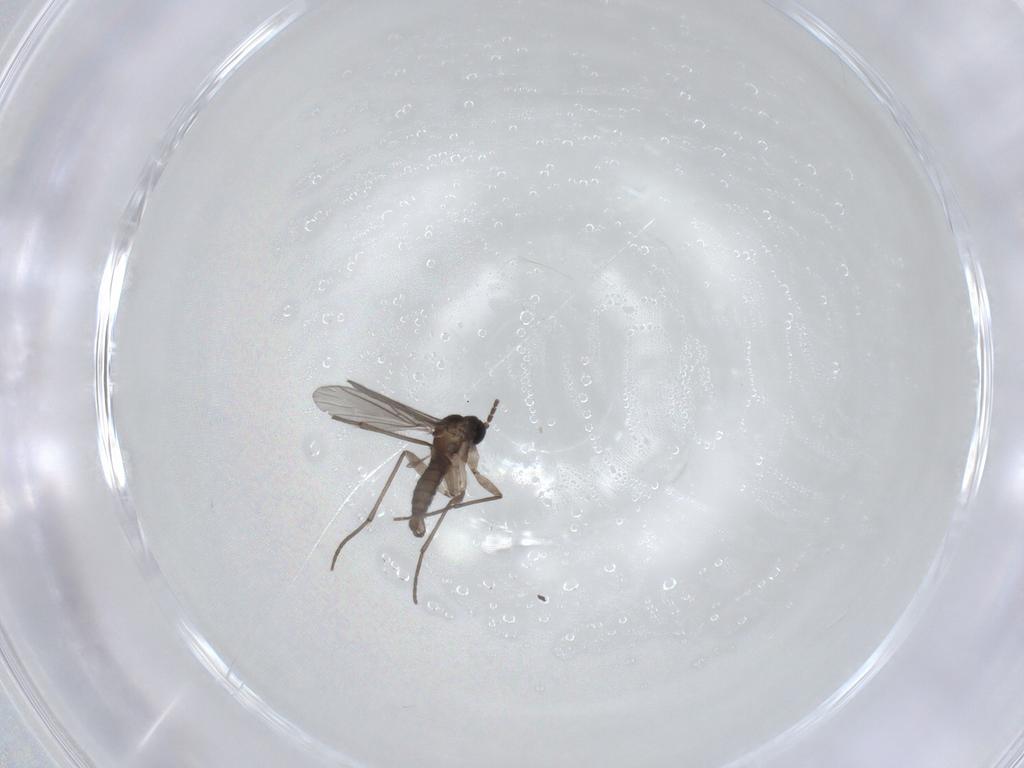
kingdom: Animalia
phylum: Arthropoda
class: Insecta
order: Diptera
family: Sciaridae
